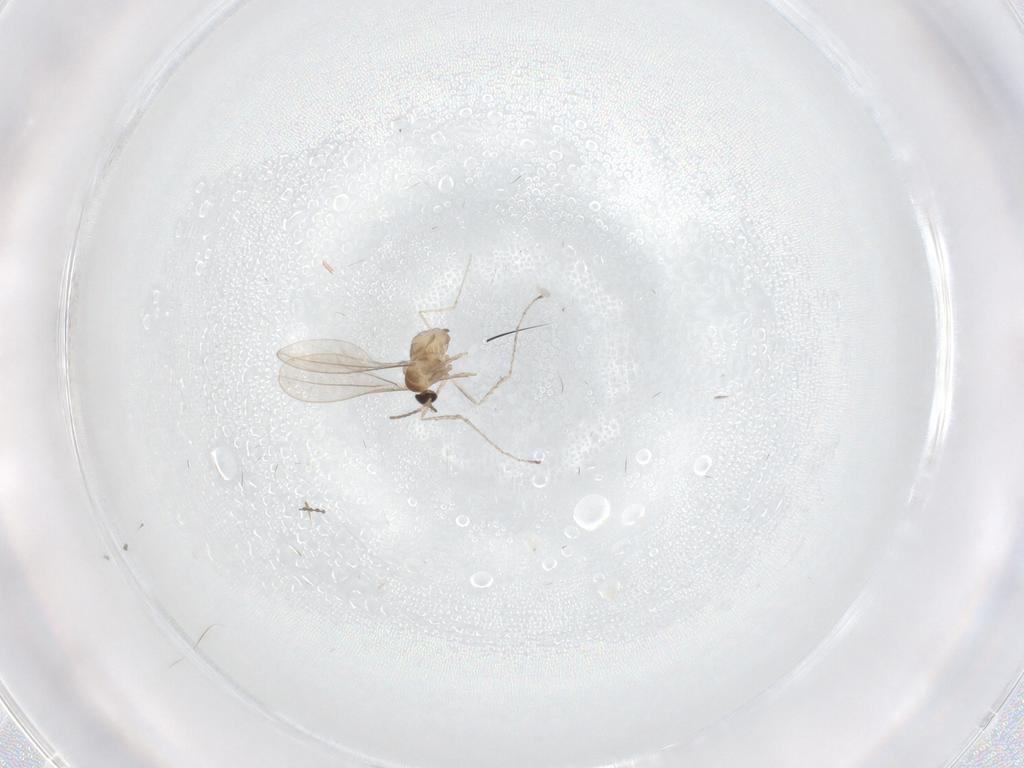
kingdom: Animalia
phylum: Arthropoda
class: Insecta
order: Diptera
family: Cecidomyiidae
